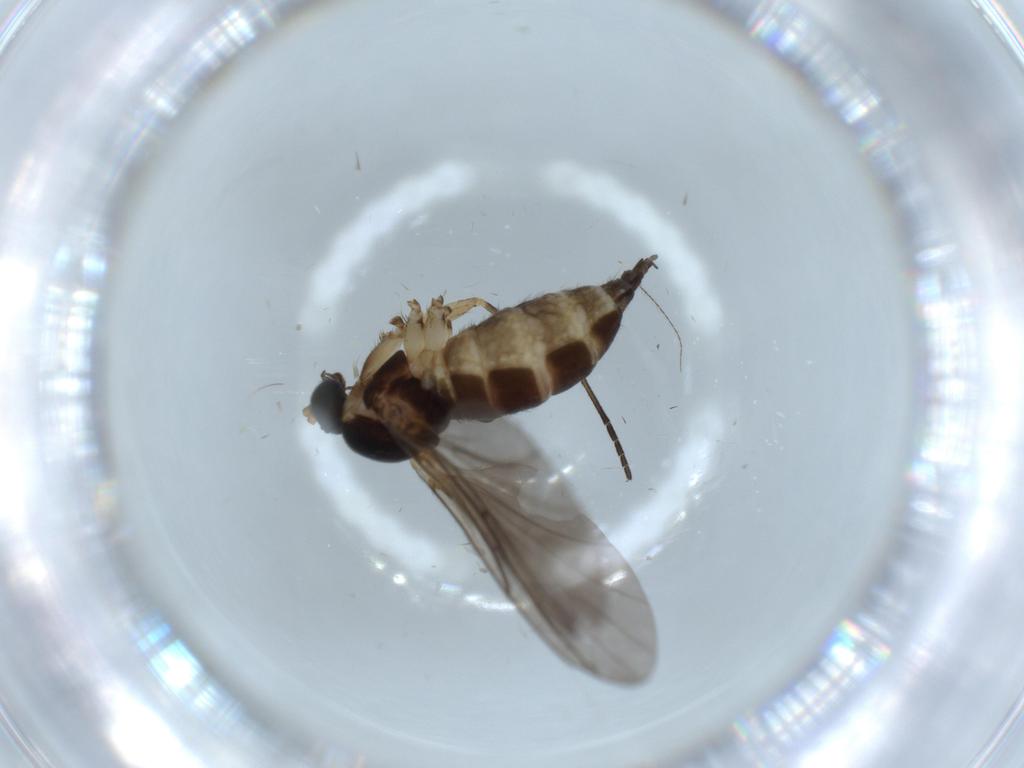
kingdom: Animalia
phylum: Arthropoda
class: Insecta
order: Diptera
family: Sciaridae
